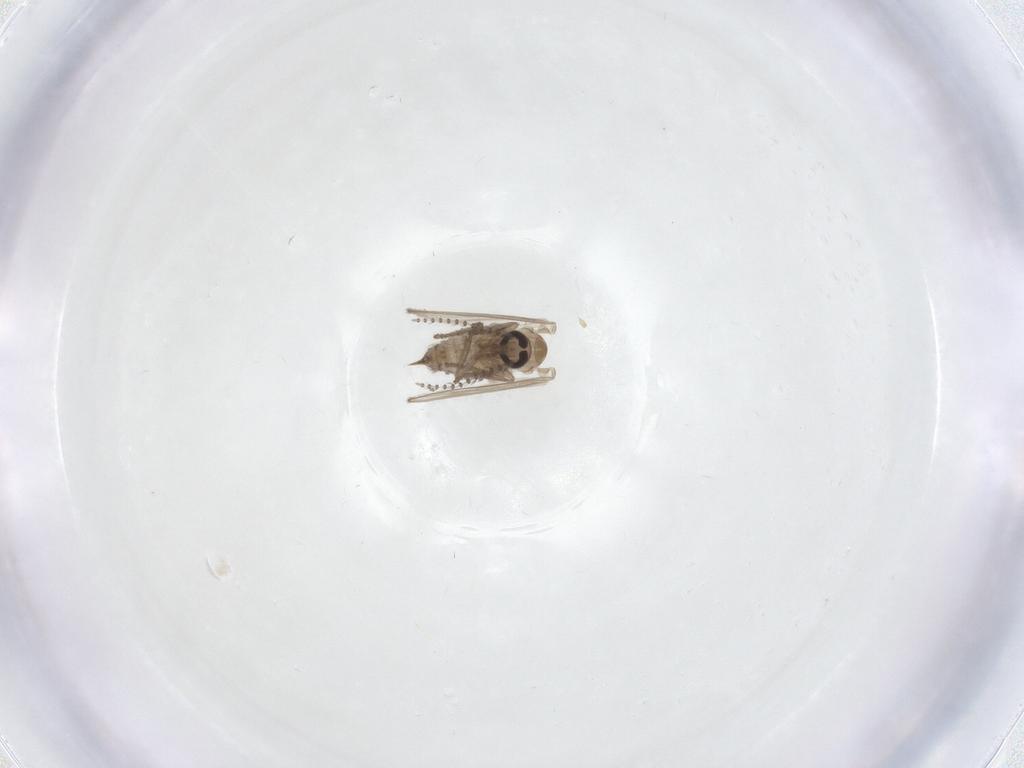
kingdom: Animalia
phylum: Arthropoda
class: Insecta
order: Diptera
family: Psychodidae
